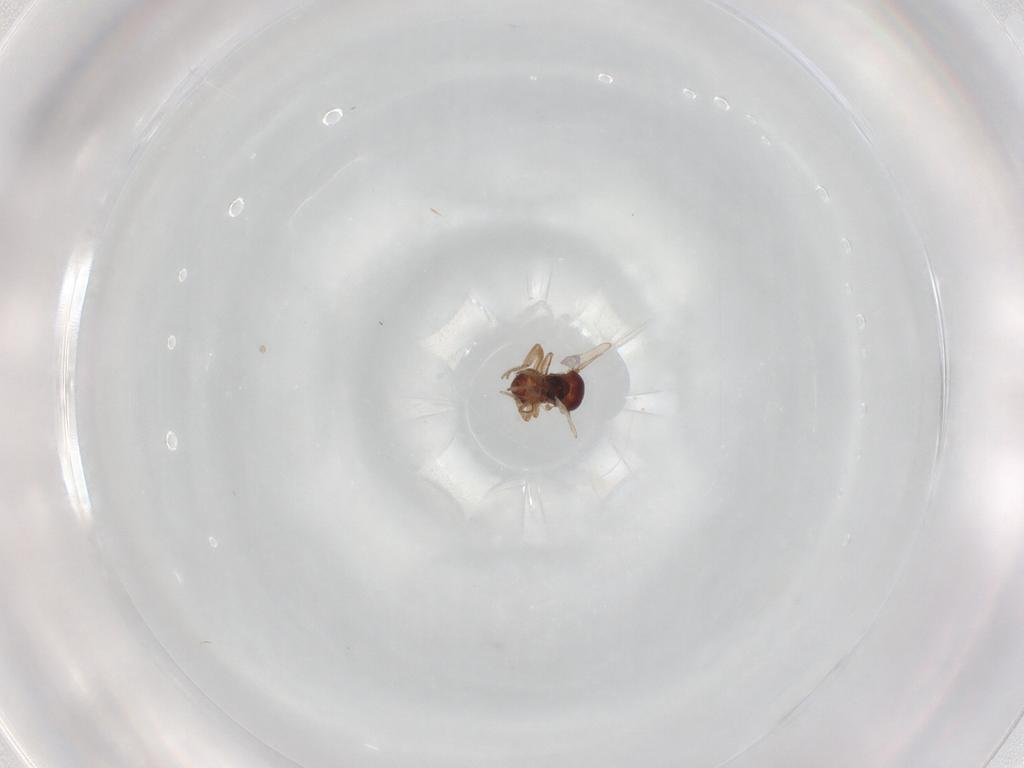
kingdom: Animalia
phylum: Arthropoda
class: Insecta
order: Diptera
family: Ceratopogonidae
